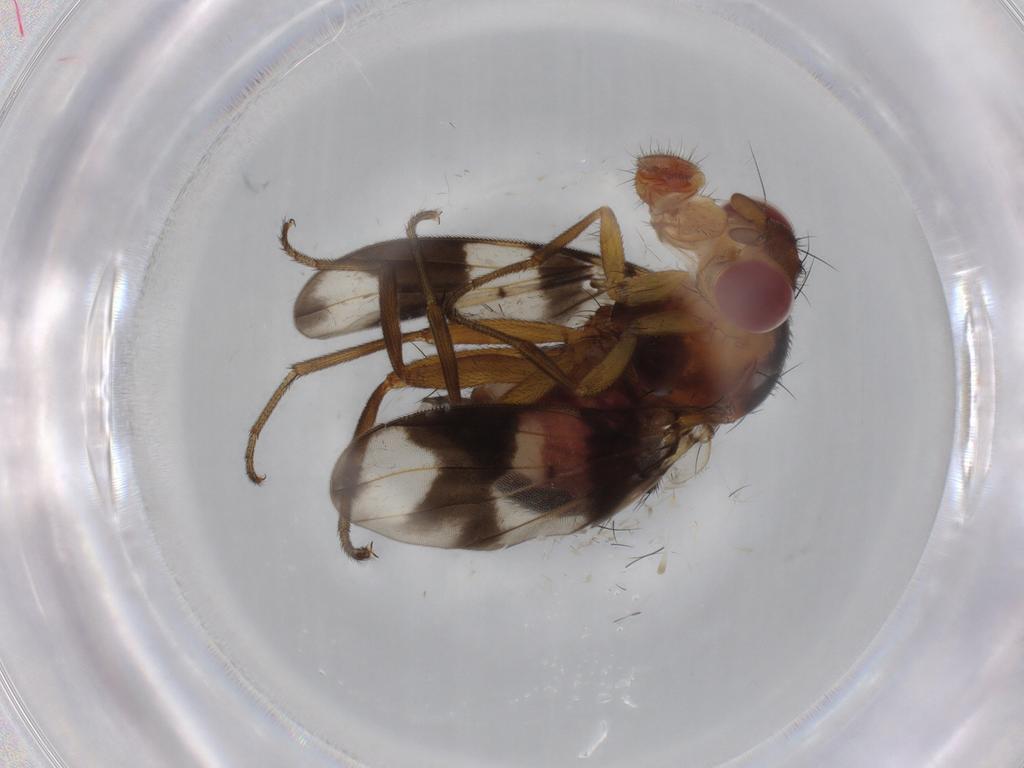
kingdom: Animalia
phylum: Arthropoda
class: Insecta
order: Diptera
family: Richardiidae
